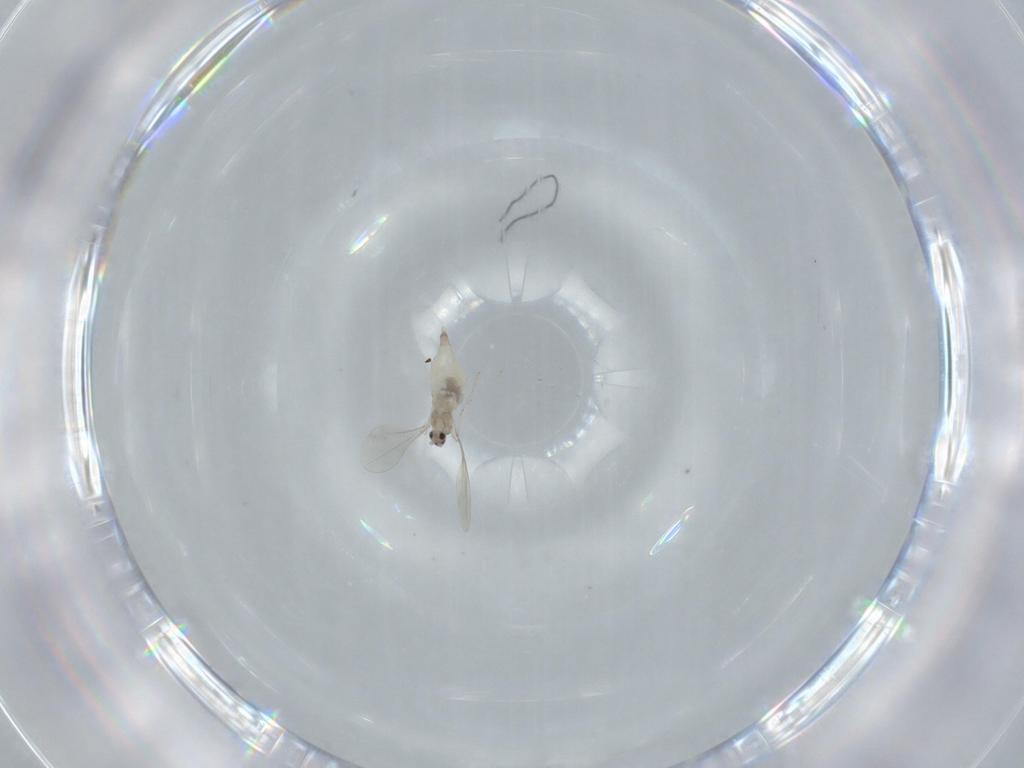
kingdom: Animalia
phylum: Arthropoda
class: Insecta
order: Diptera
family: Cecidomyiidae
